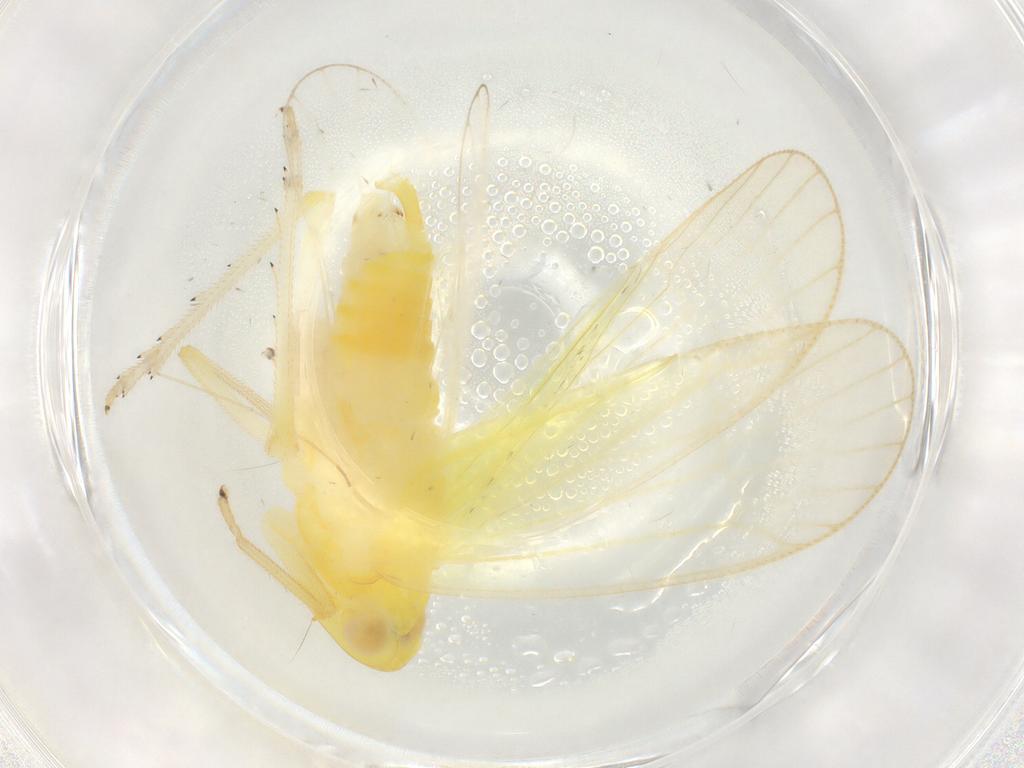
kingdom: Animalia
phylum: Arthropoda
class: Insecta
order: Hemiptera
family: Tropiduchidae
